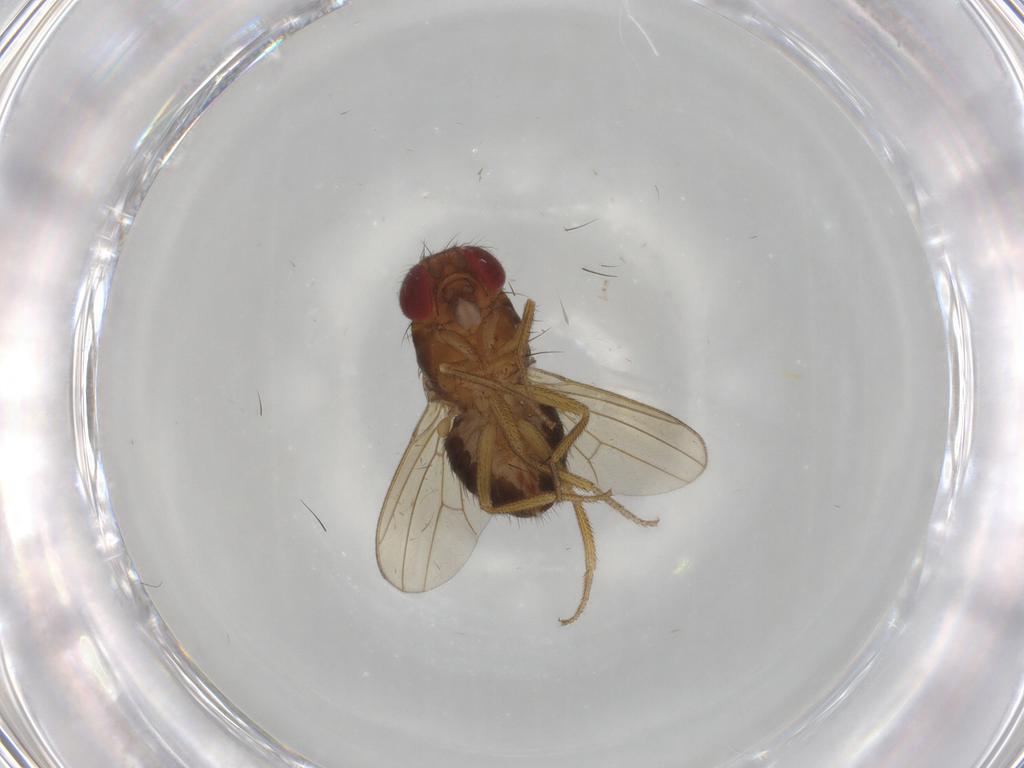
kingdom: Animalia
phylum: Arthropoda
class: Insecta
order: Diptera
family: Drosophilidae
